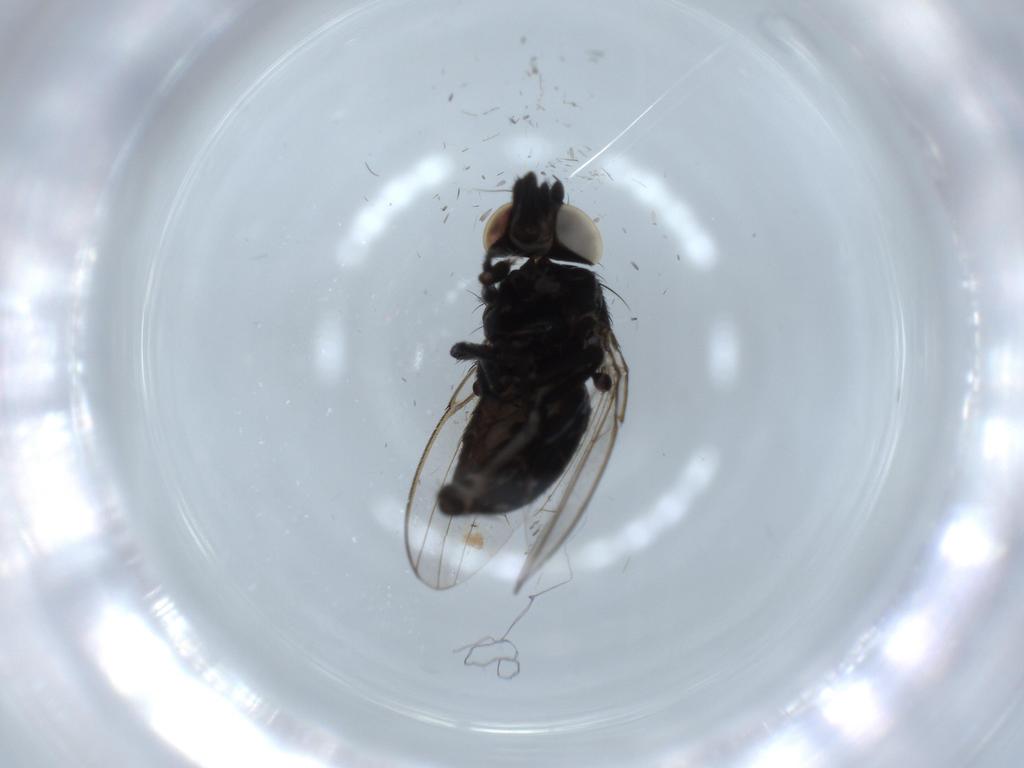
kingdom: Animalia
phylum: Arthropoda
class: Insecta
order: Diptera
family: Milichiidae
